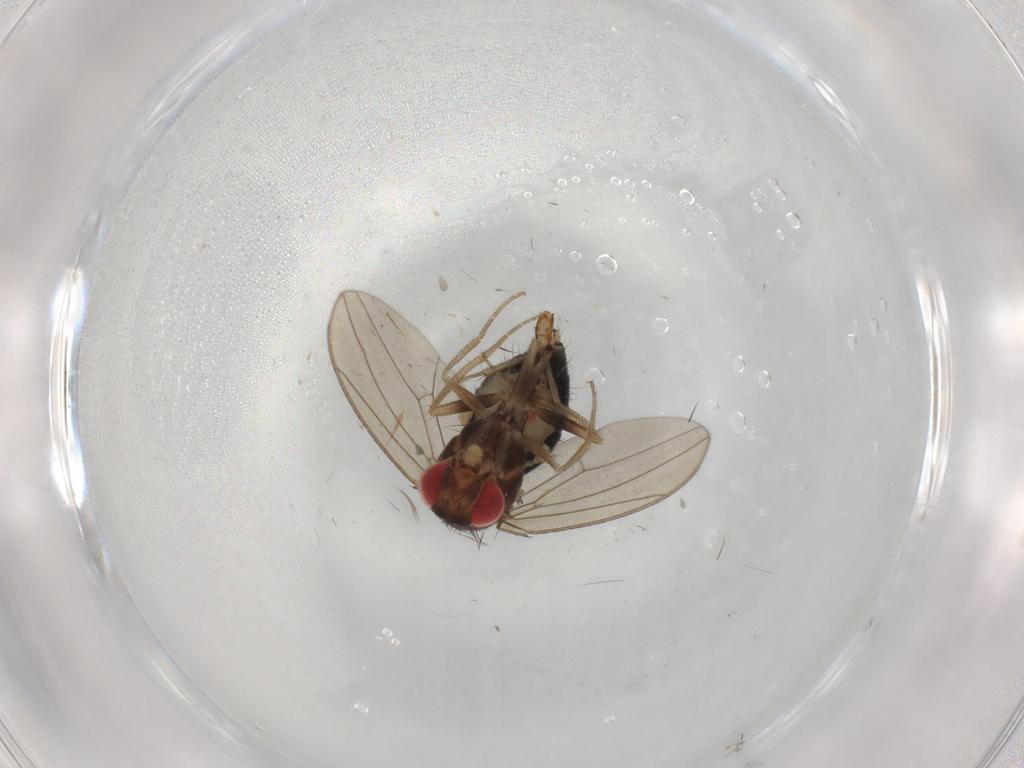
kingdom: Animalia
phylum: Arthropoda
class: Insecta
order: Diptera
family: Drosophilidae
